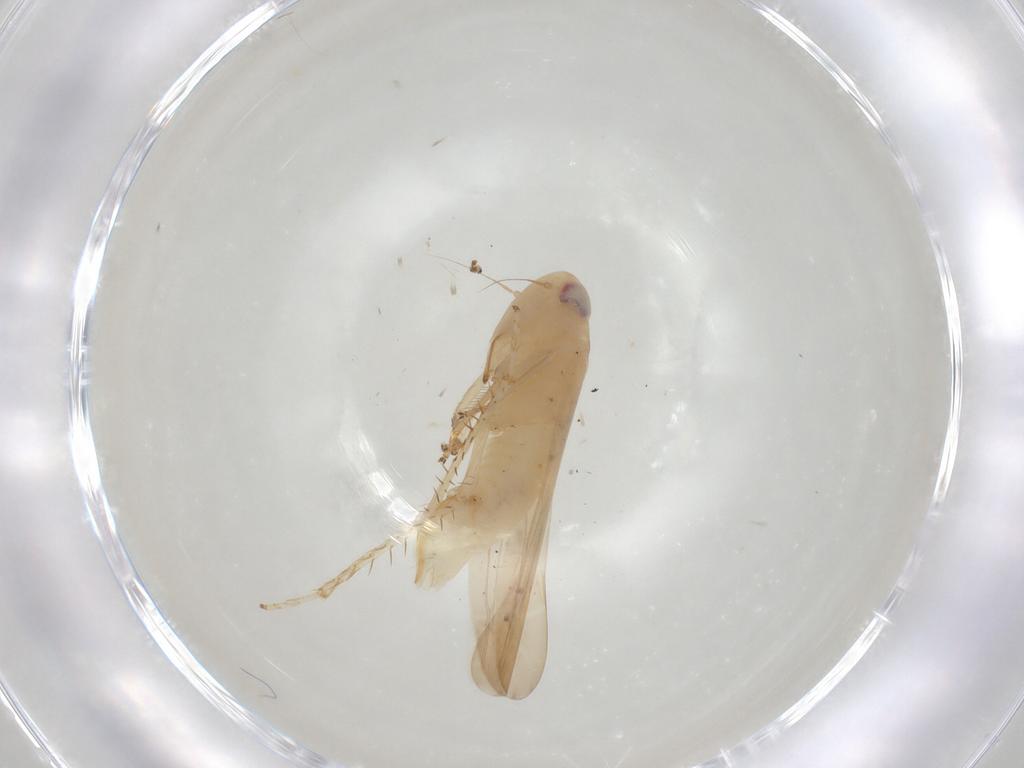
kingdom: Animalia
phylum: Arthropoda
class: Insecta
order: Hemiptera
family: Cicadellidae
